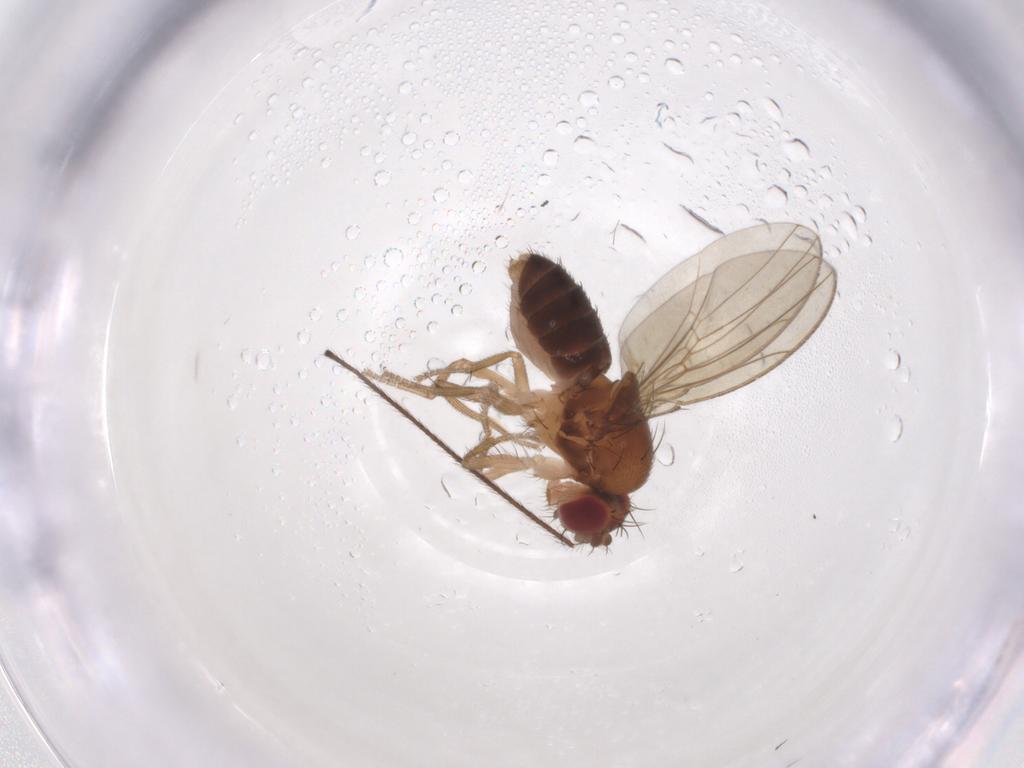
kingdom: Animalia
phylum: Arthropoda
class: Insecta
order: Diptera
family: Drosophilidae
